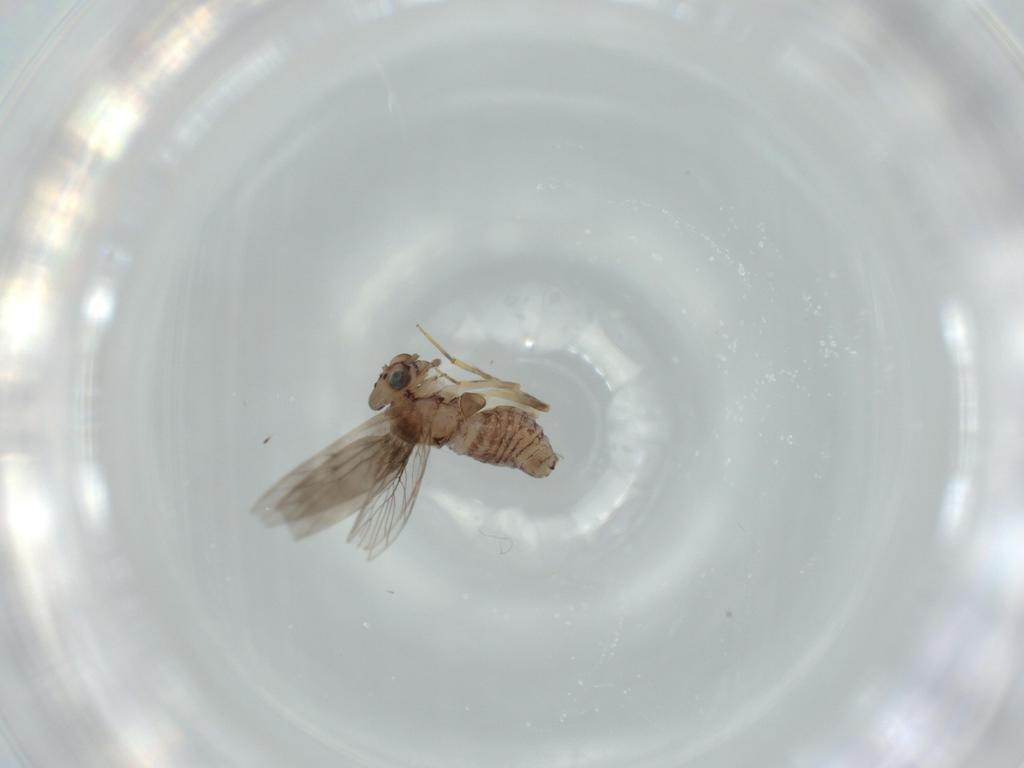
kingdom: Animalia
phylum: Arthropoda
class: Insecta
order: Psocodea
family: Lepidopsocidae
